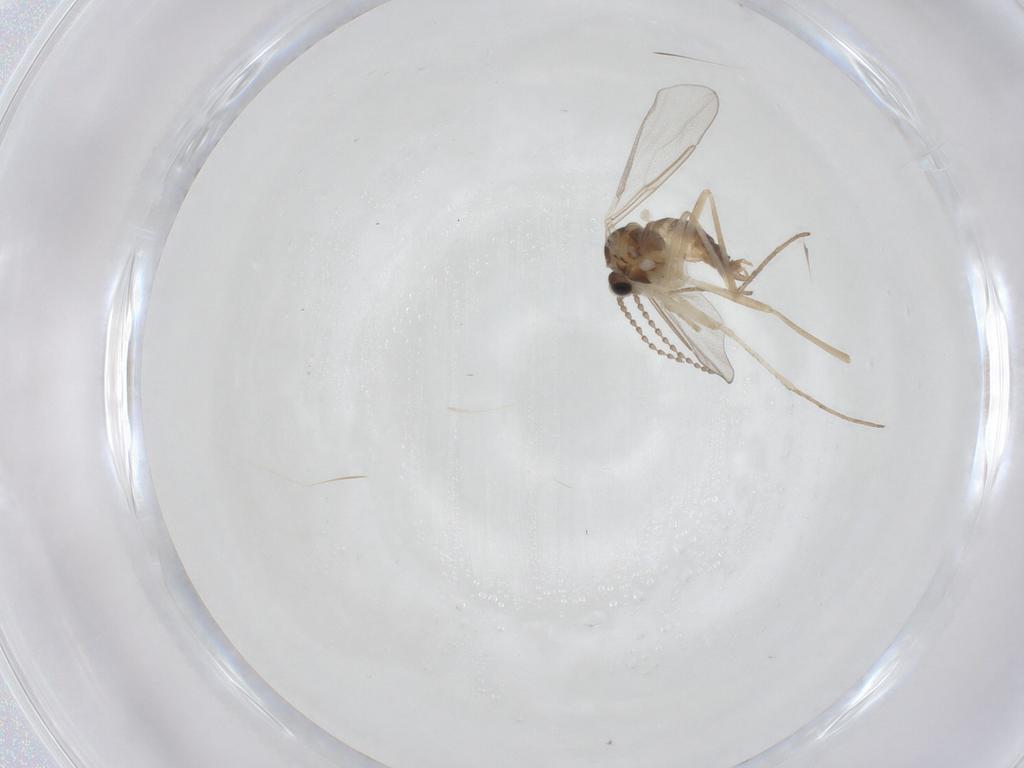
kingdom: Animalia
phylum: Arthropoda
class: Insecta
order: Diptera
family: Cecidomyiidae
